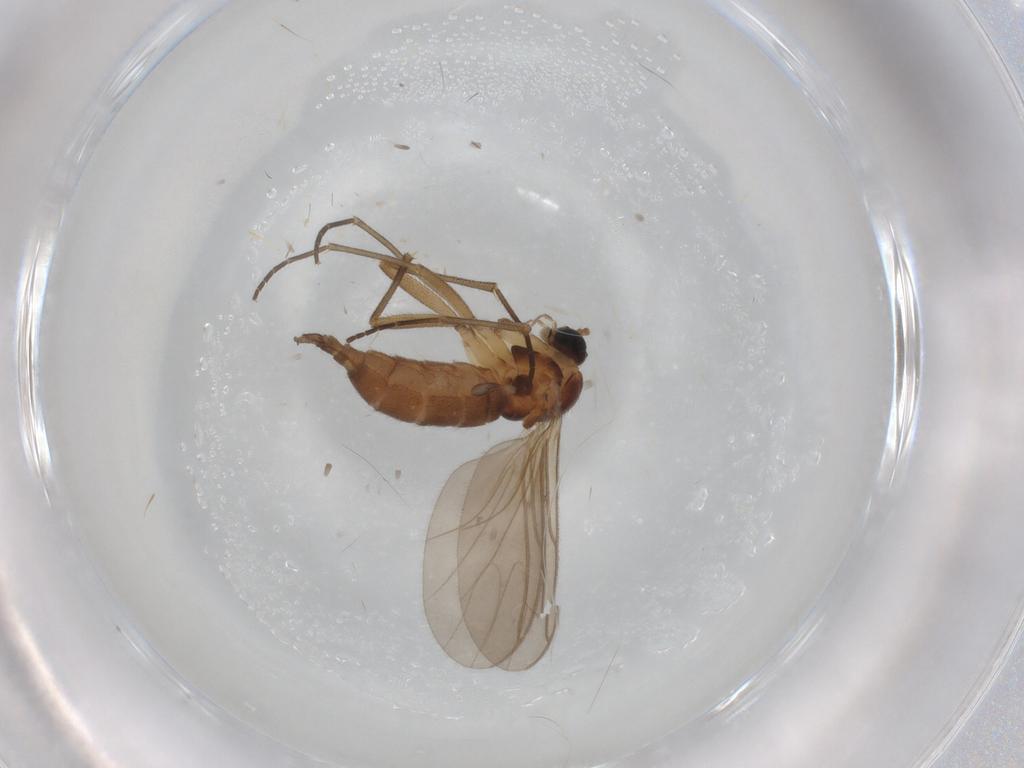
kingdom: Animalia
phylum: Arthropoda
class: Insecta
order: Diptera
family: Sciaridae
